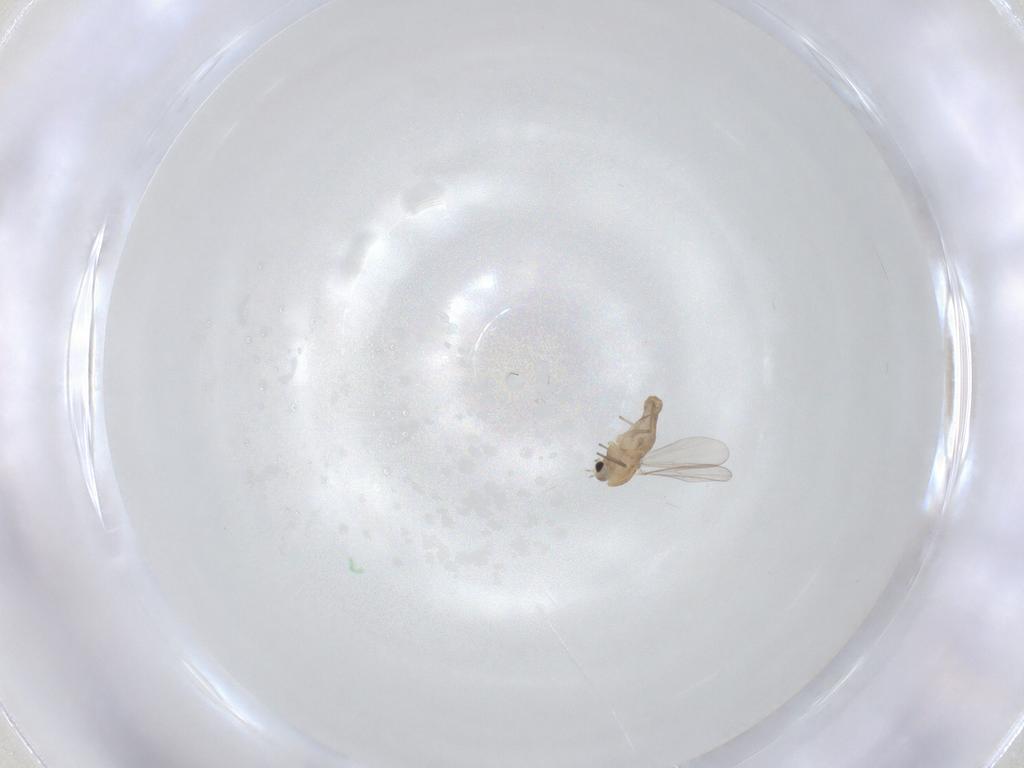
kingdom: Animalia
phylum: Arthropoda
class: Insecta
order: Diptera
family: Chironomidae
